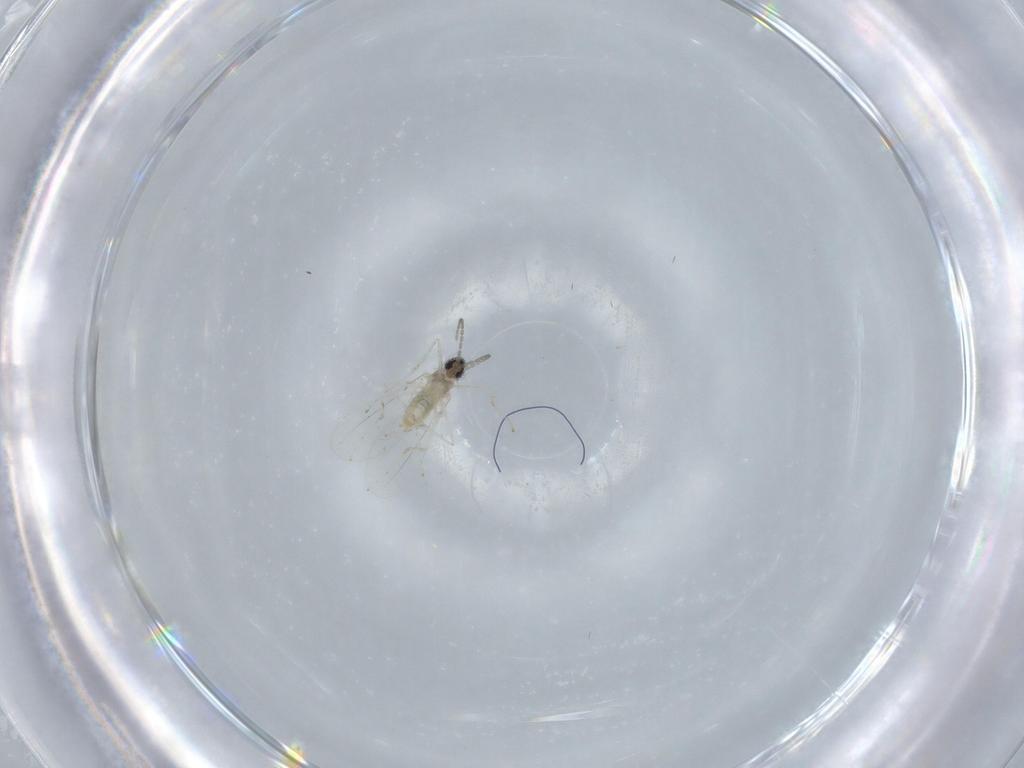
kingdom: Animalia
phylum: Arthropoda
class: Insecta
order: Diptera
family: Cecidomyiidae
